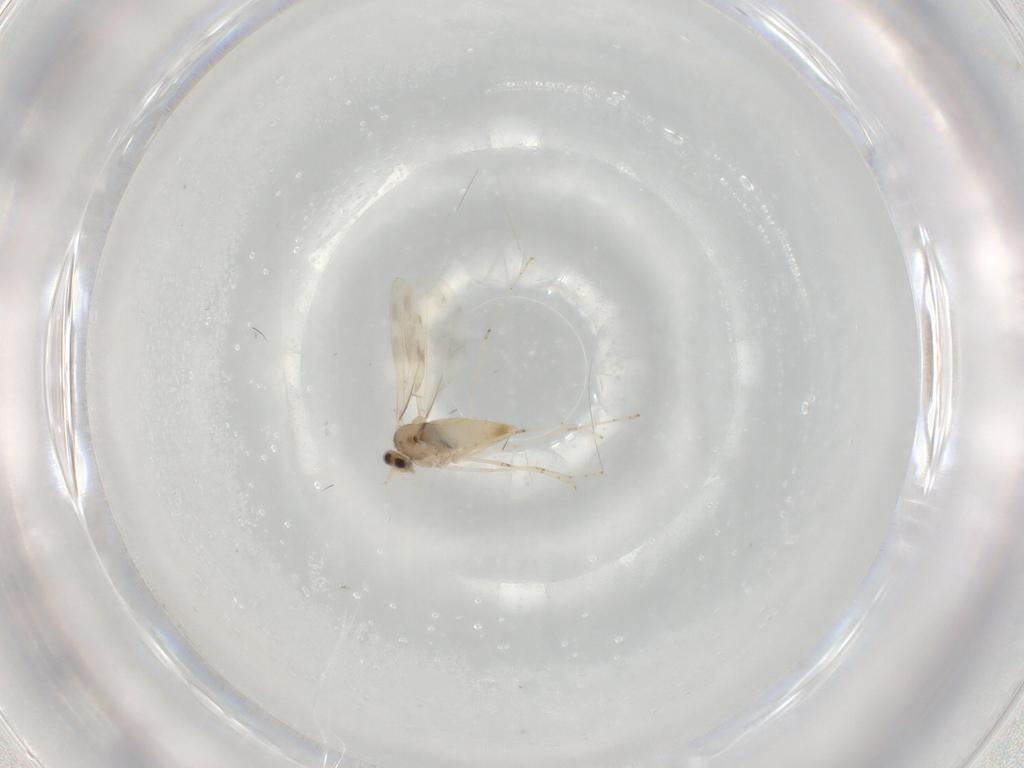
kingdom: Animalia
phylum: Arthropoda
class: Insecta
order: Diptera
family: Cecidomyiidae
